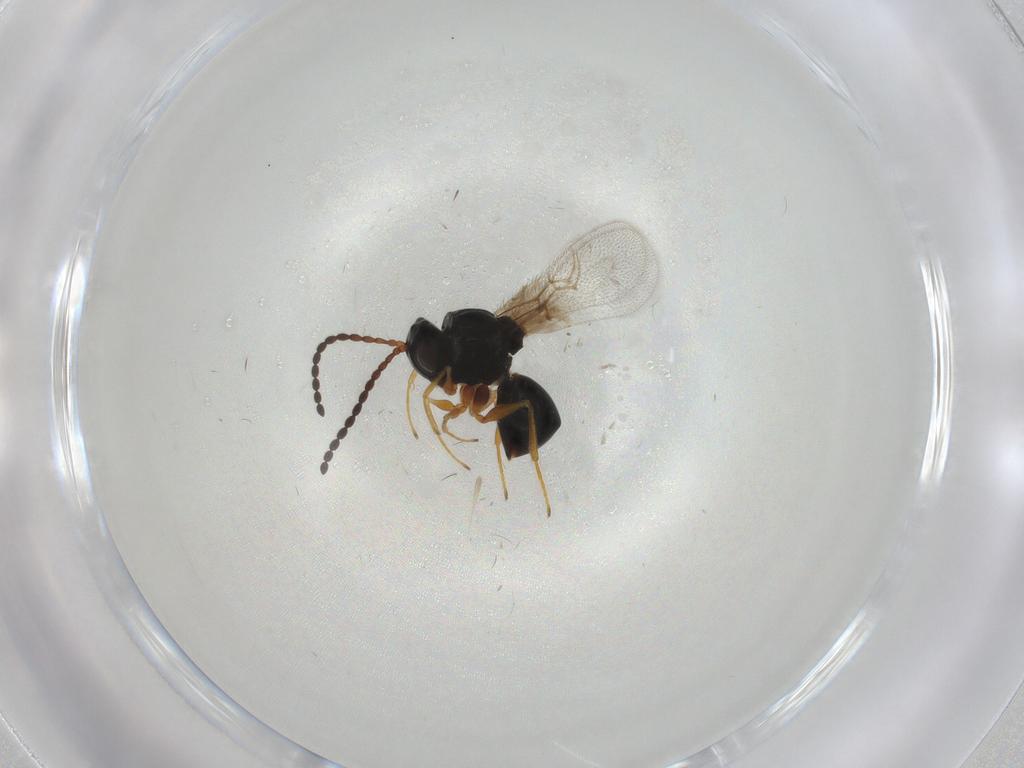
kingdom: Animalia
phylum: Arthropoda
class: Insecta
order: Hymenoptera
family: Figitidae
